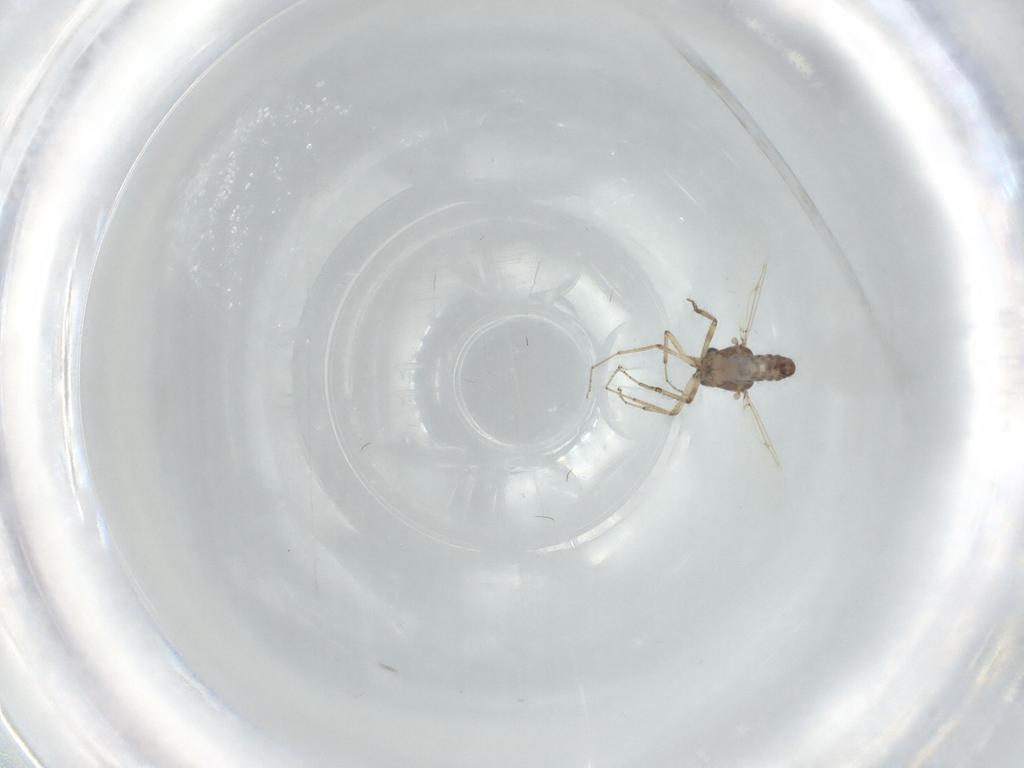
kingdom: Animalia
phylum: Arthropoda
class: Insecta
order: Diptera
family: Ceratopogonidae
